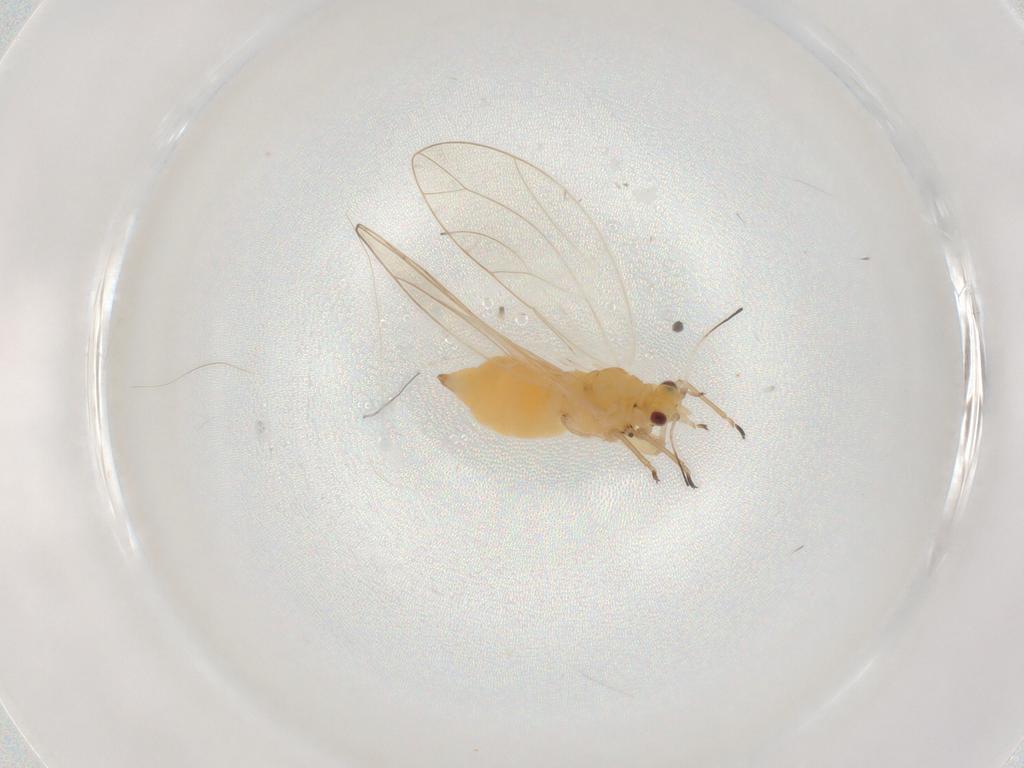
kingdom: Animalia
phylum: Arthropoda
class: Insecta
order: Hemiptera
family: Triozidae
